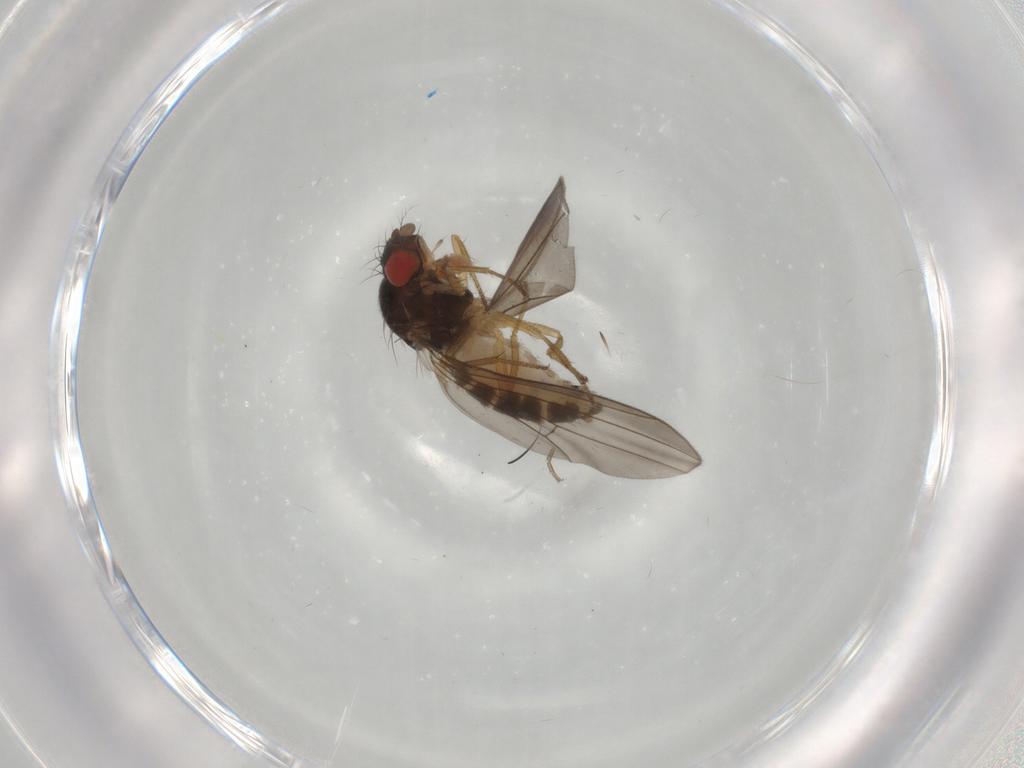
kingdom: Animalia
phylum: Arthropoda
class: Insecta
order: Diptera
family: Drosophilidae
